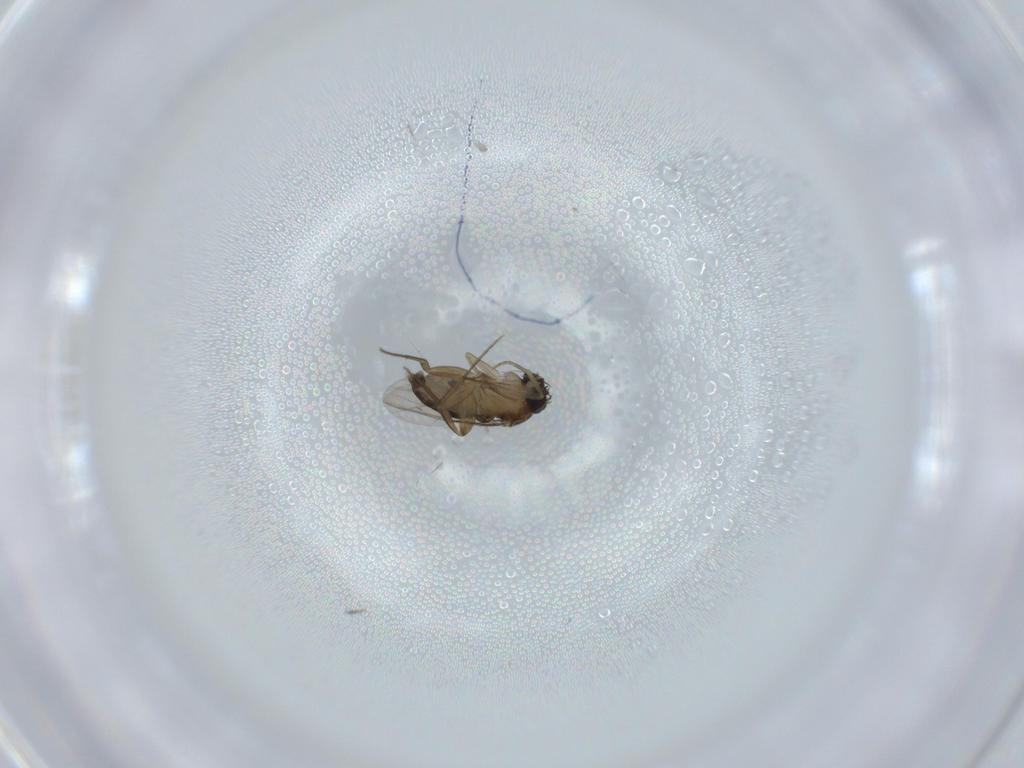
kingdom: Animalia
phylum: Arthropoda
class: Insecta
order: Diptera
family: Phoridae
